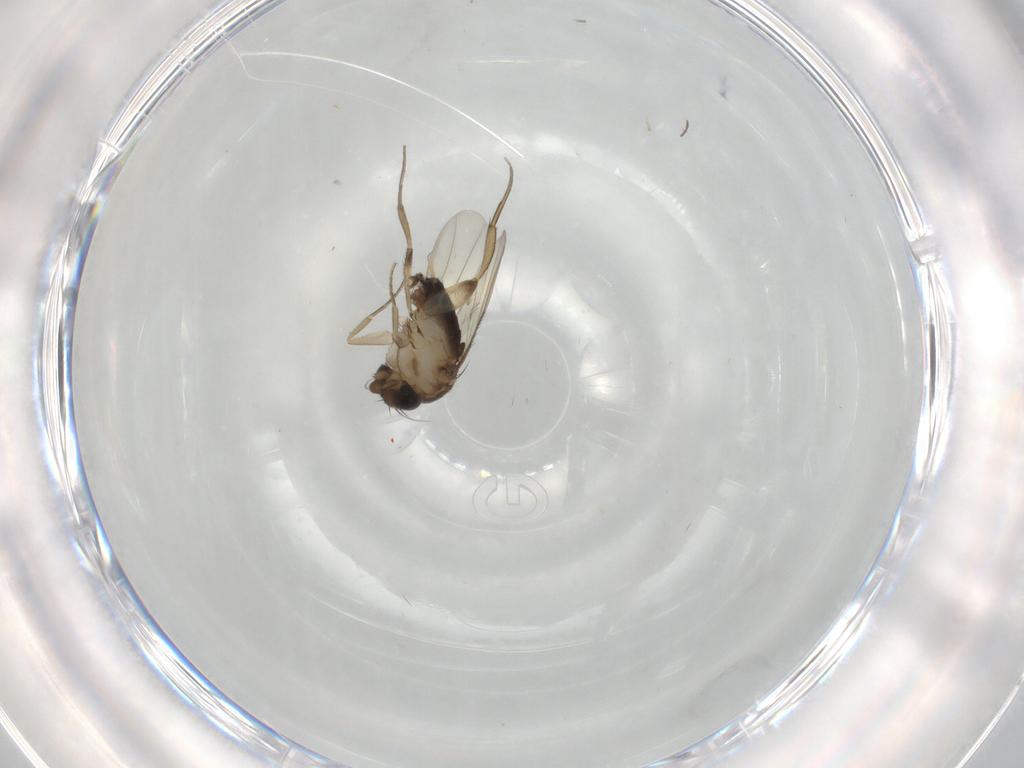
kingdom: Animalia
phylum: Arthropoda
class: Insecta
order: Diptera
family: Phoridae
